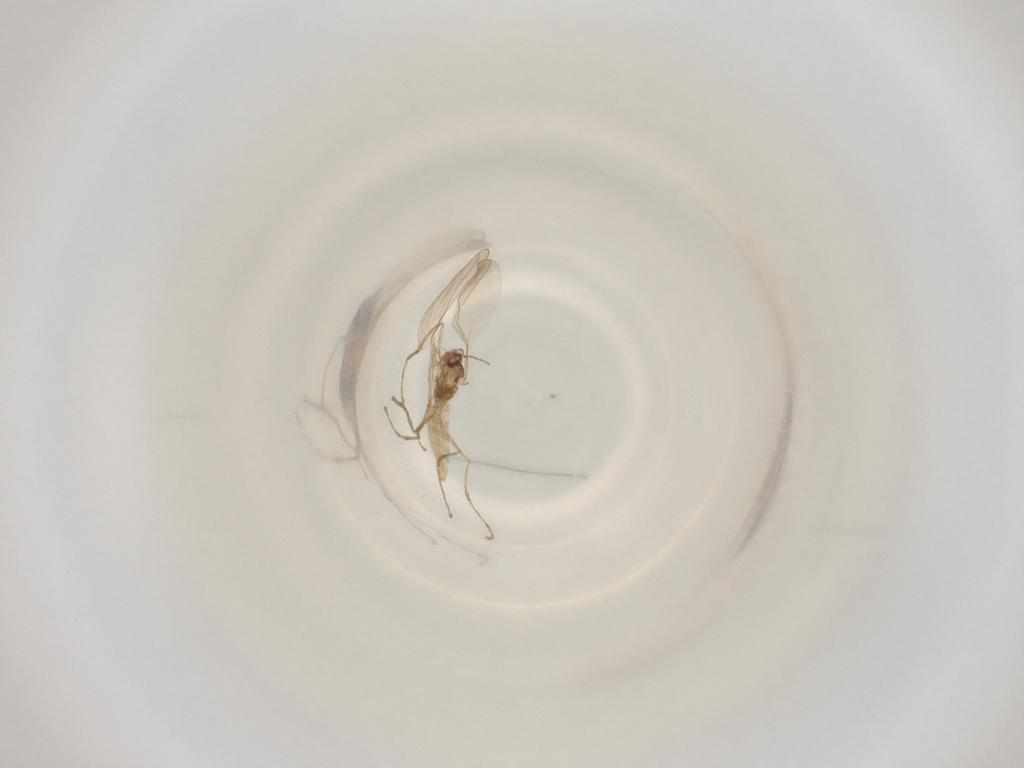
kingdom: Animalia
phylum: Arthropoda
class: Insecta
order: Diptera
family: Cecidomyiidae
